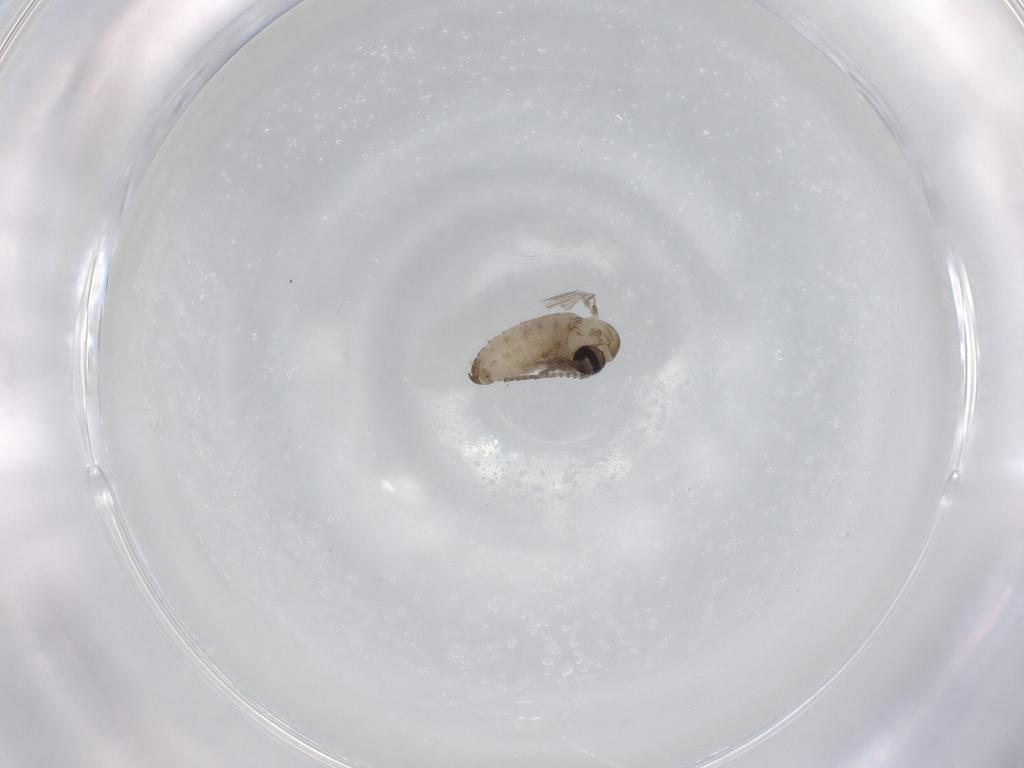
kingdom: Animalia
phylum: Arthropoda
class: Insecta
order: Diptera
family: Psychodidae
